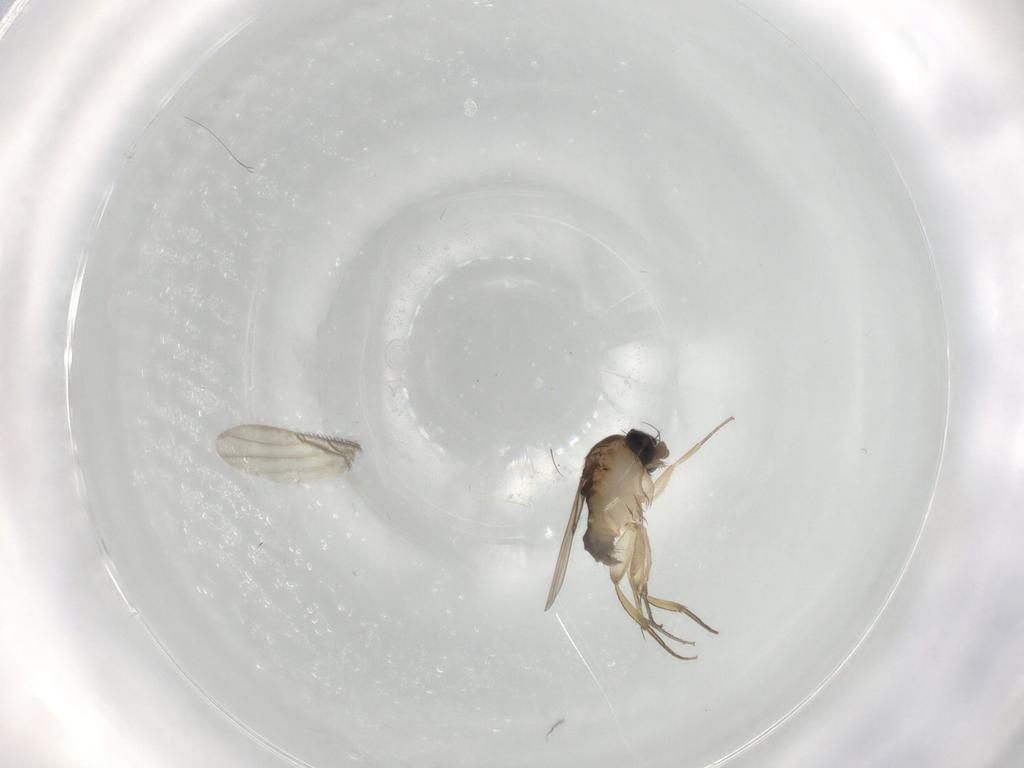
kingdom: Animalia
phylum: Arthropoda
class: Insecta
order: Diptera
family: Phoridae
